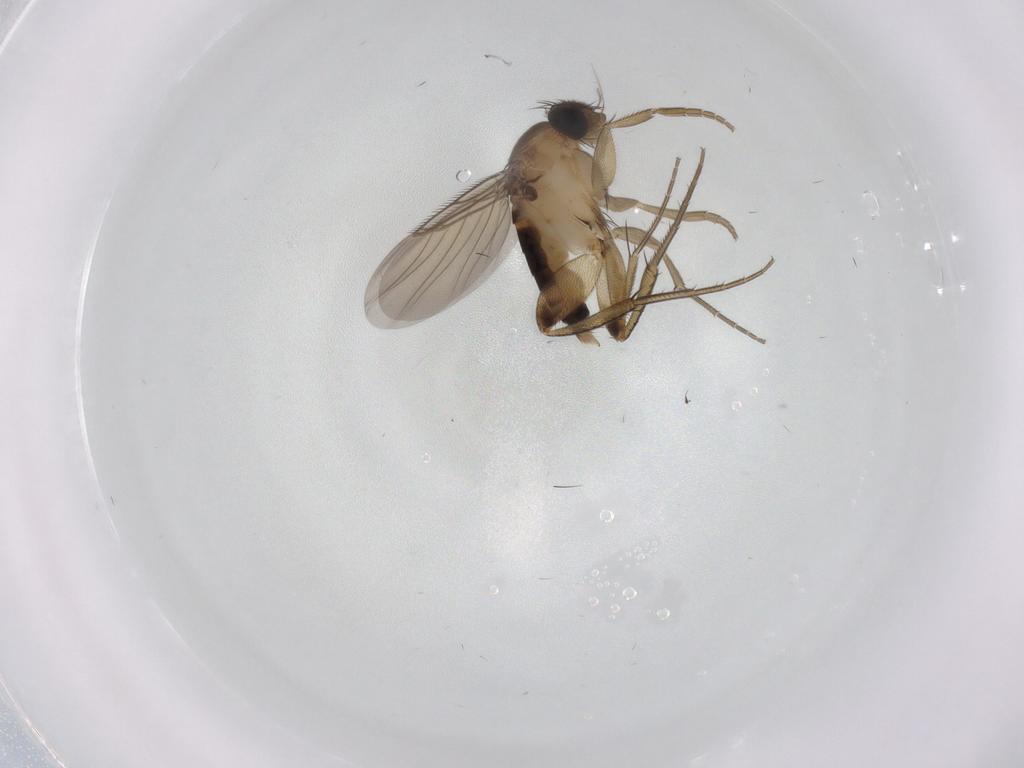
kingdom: Animalia
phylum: Arthropoda
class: Insecta
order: Diptera
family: Phoridae
